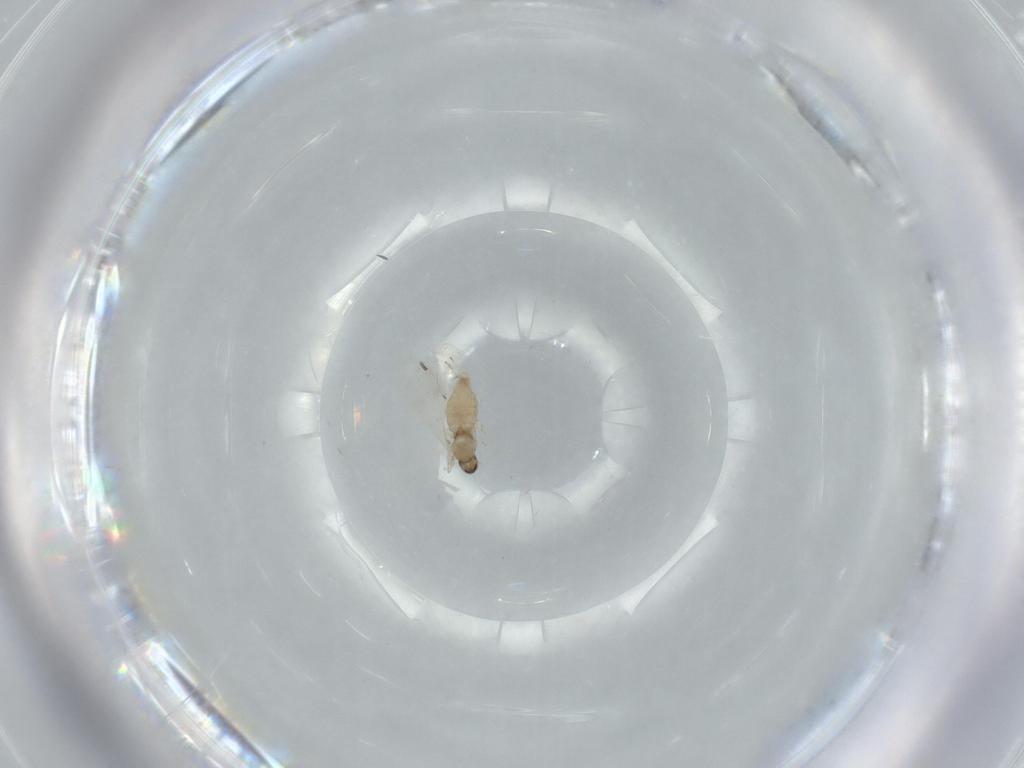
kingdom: Animalia
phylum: Arthropoda
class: Insecta
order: Diptera
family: Cecidomyiidae
